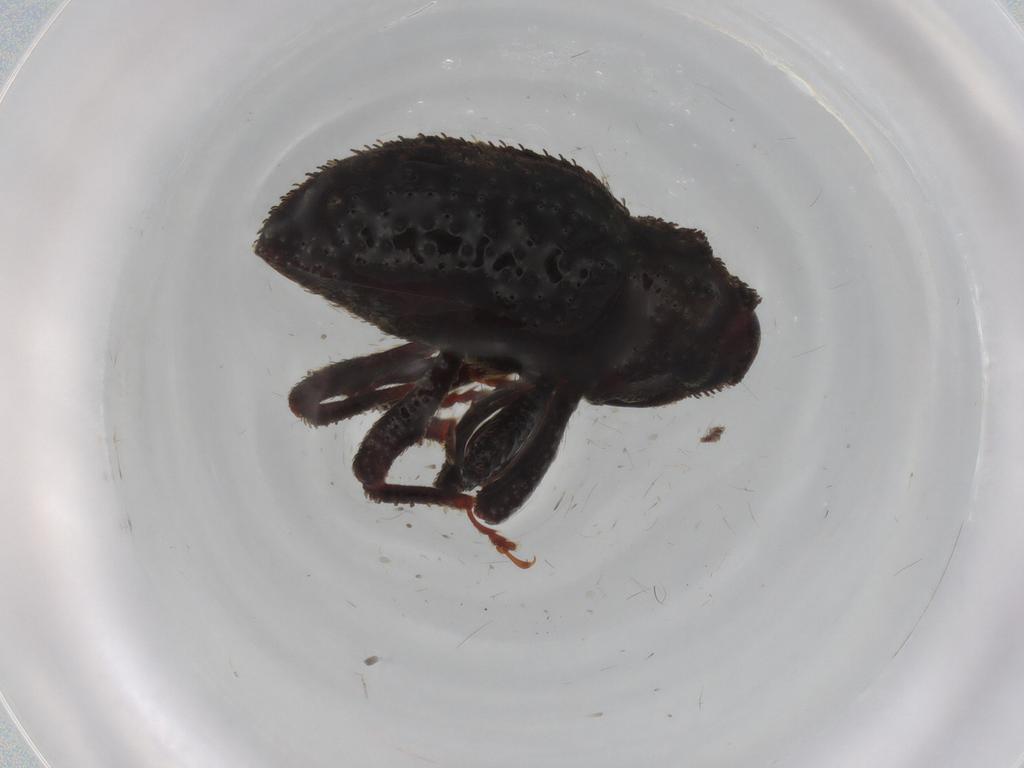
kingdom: Animalia
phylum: Arthropoda
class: Insecta
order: Coleoptera
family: Curculionidae
